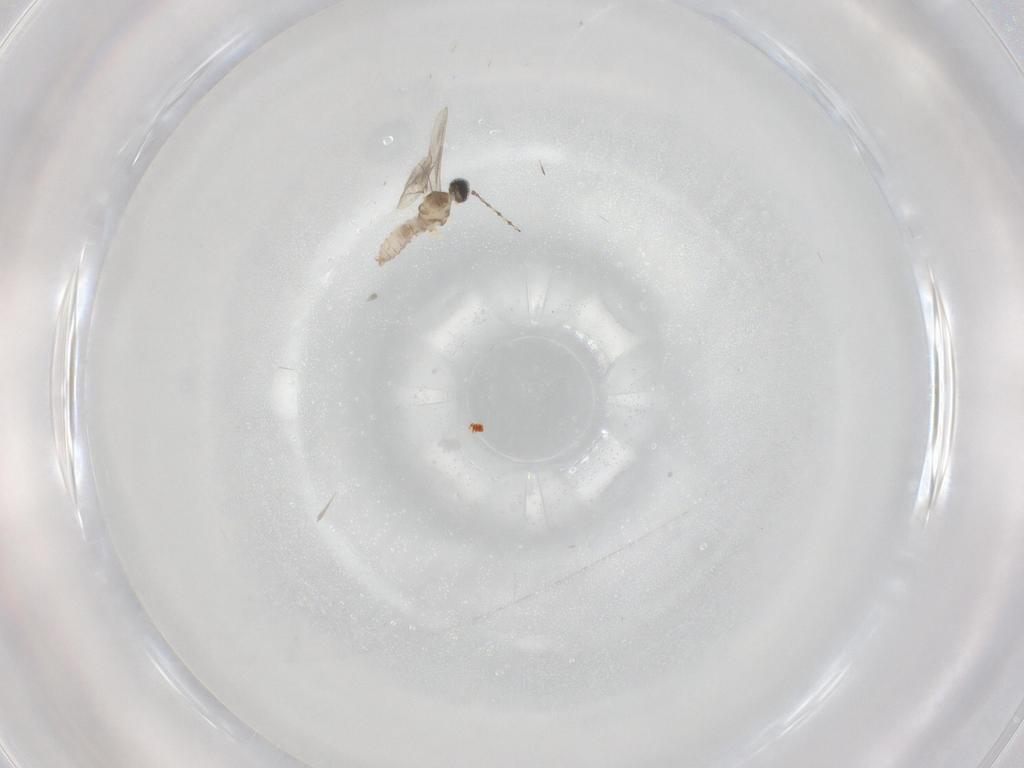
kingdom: Animalia
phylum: Arthropoda
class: Insecta
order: Diptera
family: Cecidomyiidae
